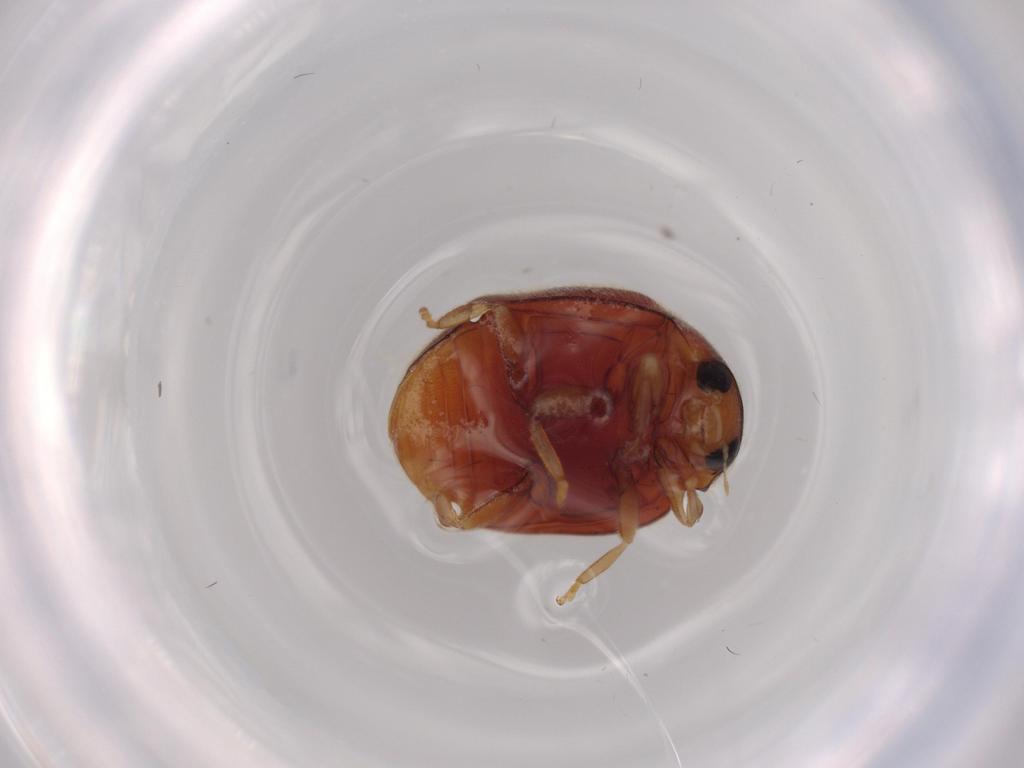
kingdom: Animalia
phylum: Arthropoda
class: Insecta
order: Coleoptera
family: Coccinellidae
